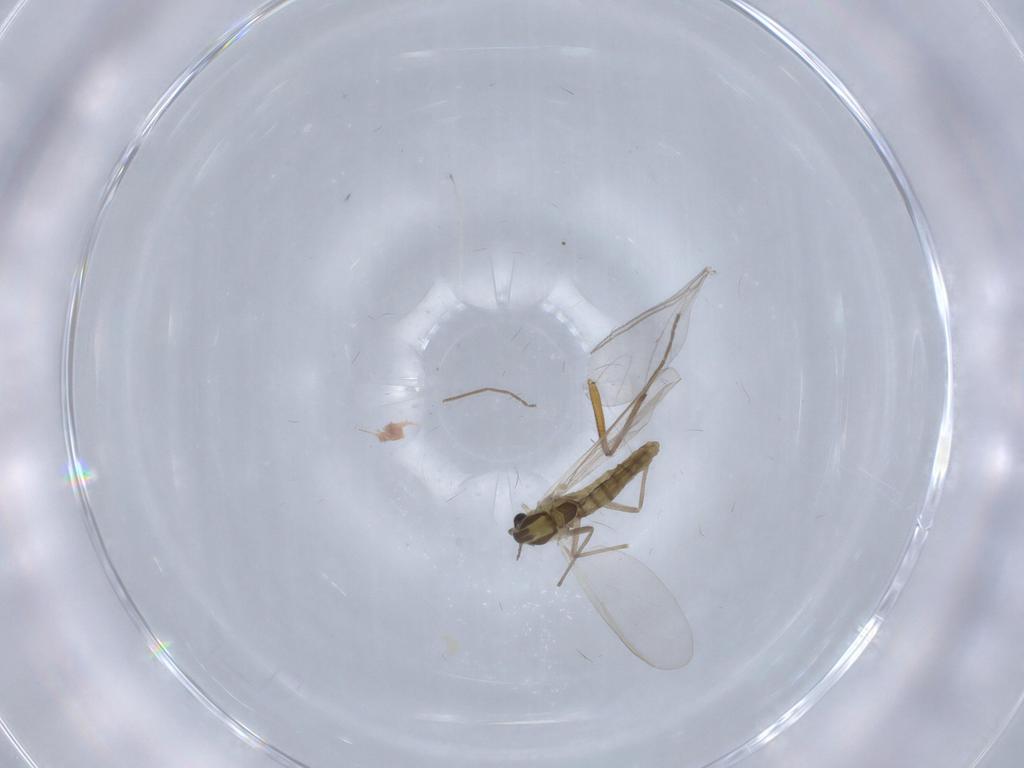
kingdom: Animalia
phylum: Arthropoda
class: Insecta
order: Diptera
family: Chironomidae
